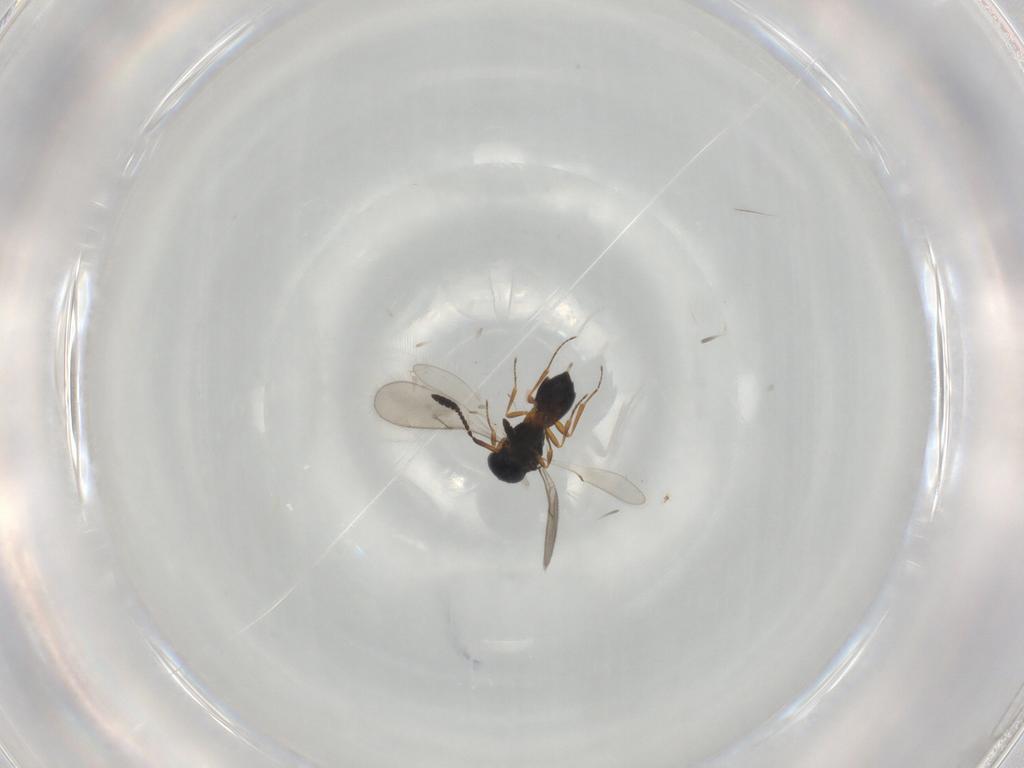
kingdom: Animalia
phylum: Arthropoda
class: Insecta
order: Hymenoptera
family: Scelionidae
